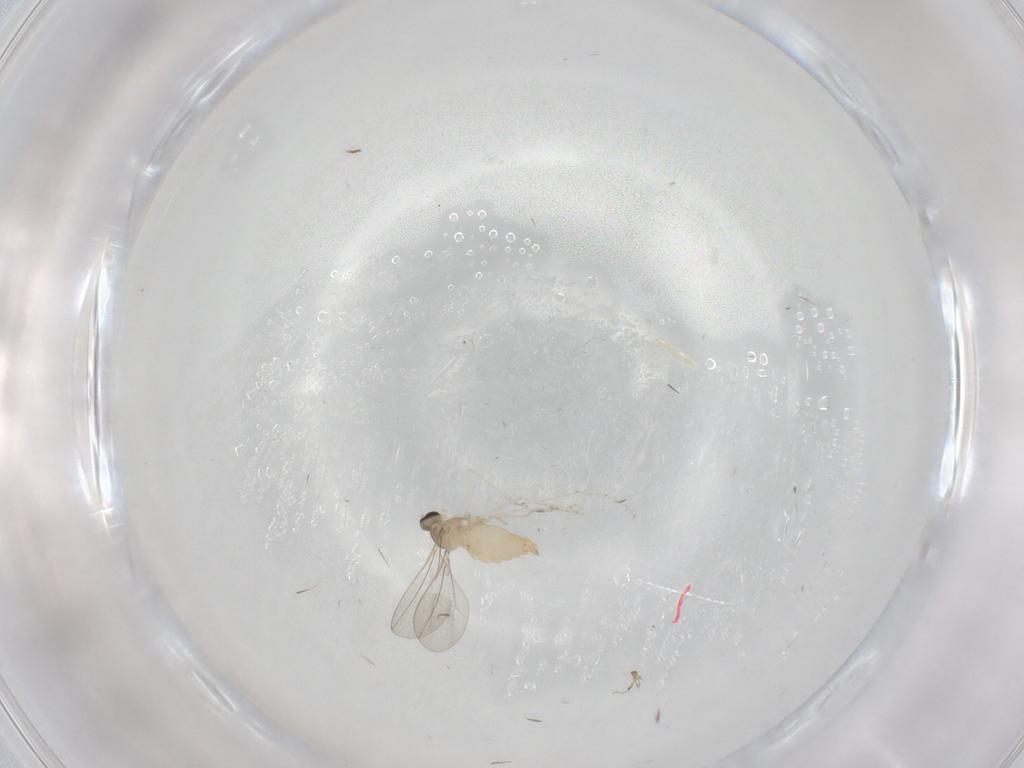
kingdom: Animalia
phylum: Arthropoda
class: Insecta
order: Diptera
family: Cecidomyiidae
